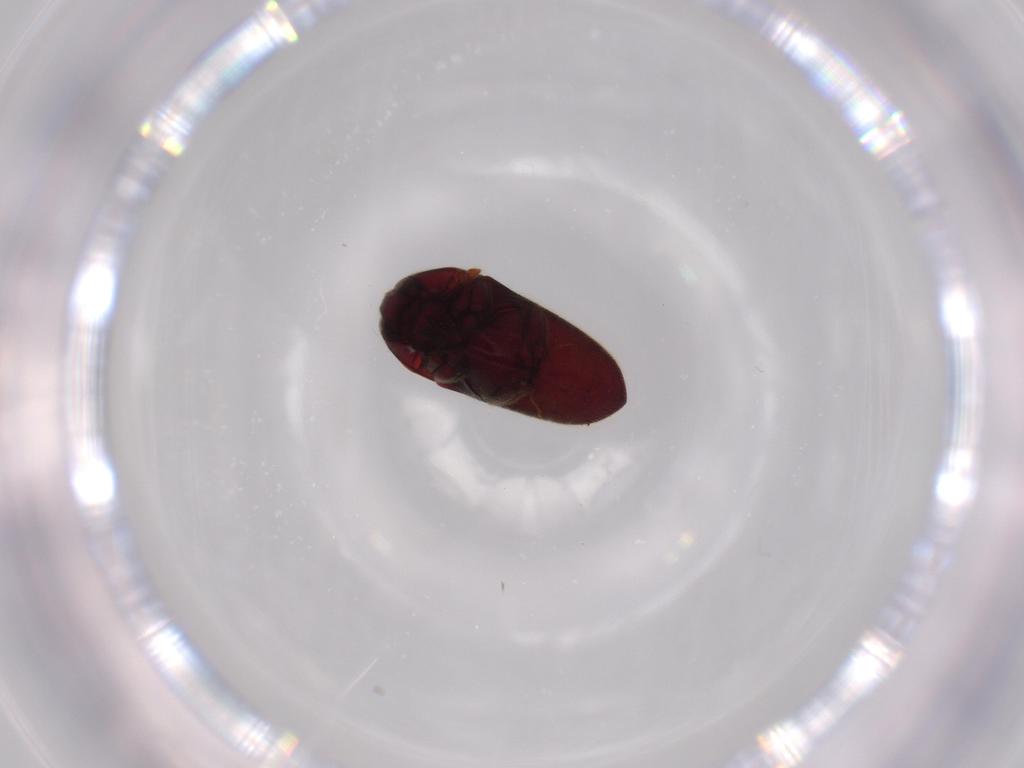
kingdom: Animalia
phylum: Arthropoda
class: Insecta
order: Coleoptera
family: Throscidae
